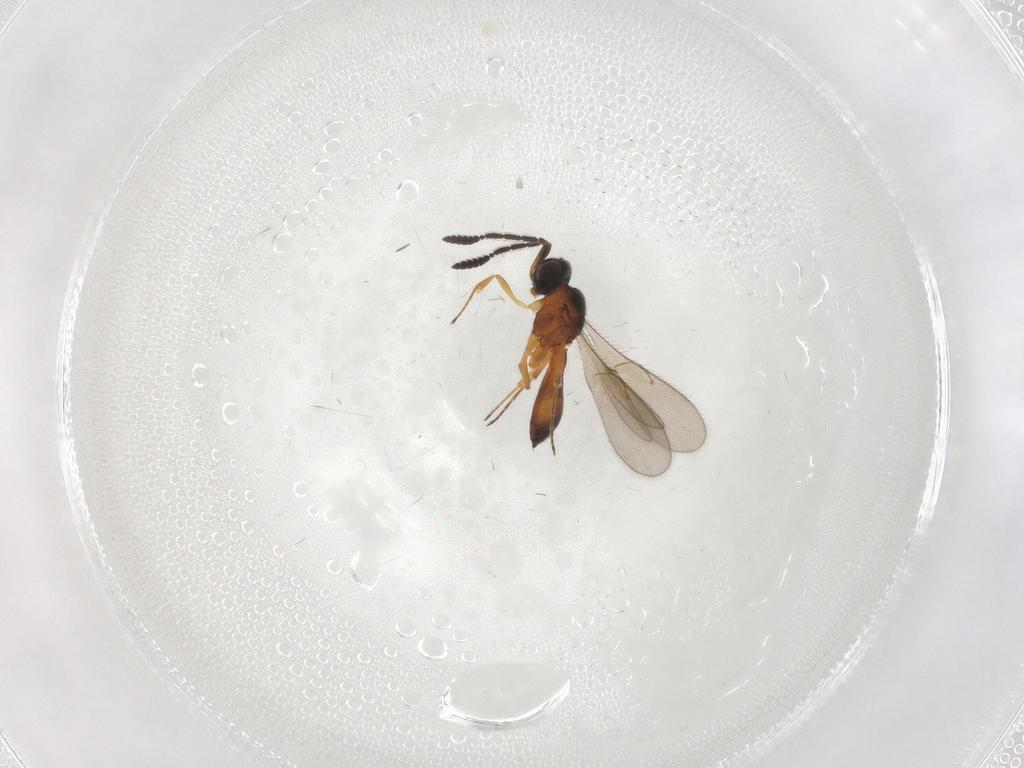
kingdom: Animalia
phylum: Arthropoda
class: Insecta
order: Hymenoptera
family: Scelionidae
